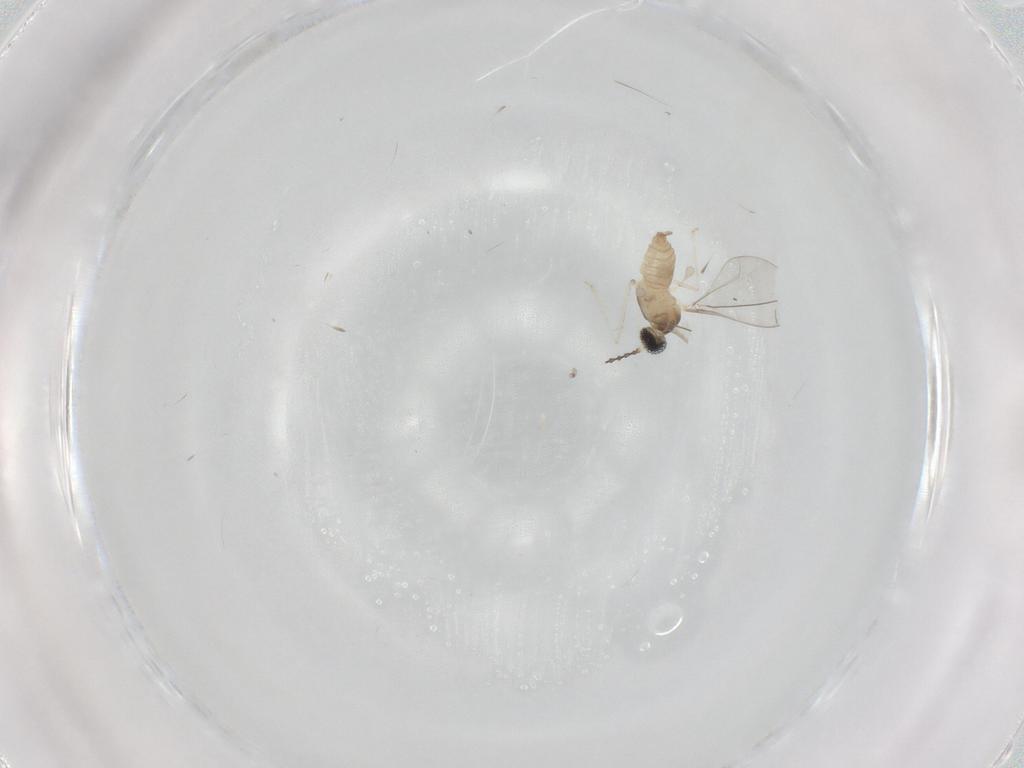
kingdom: Animalia
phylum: Arthropoda
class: Insecta
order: Diptera
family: Cecidomyiidae
